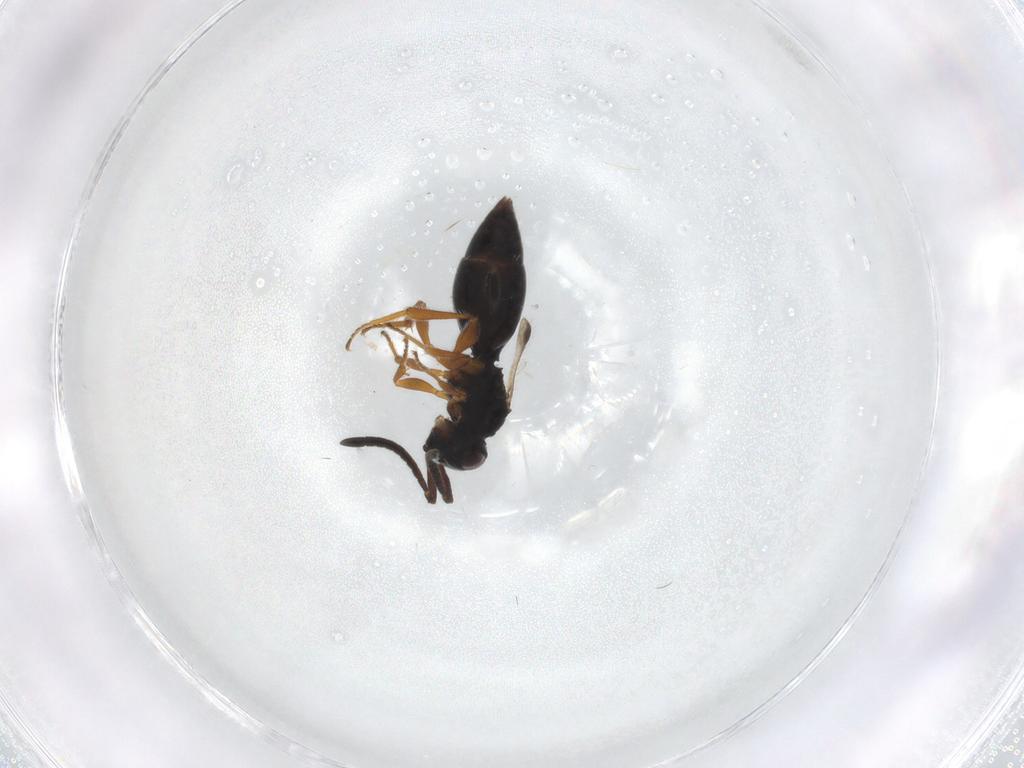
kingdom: Animalia
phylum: Arthropoda
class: Insecta
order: Hymenoptera
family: Megaspilidae
